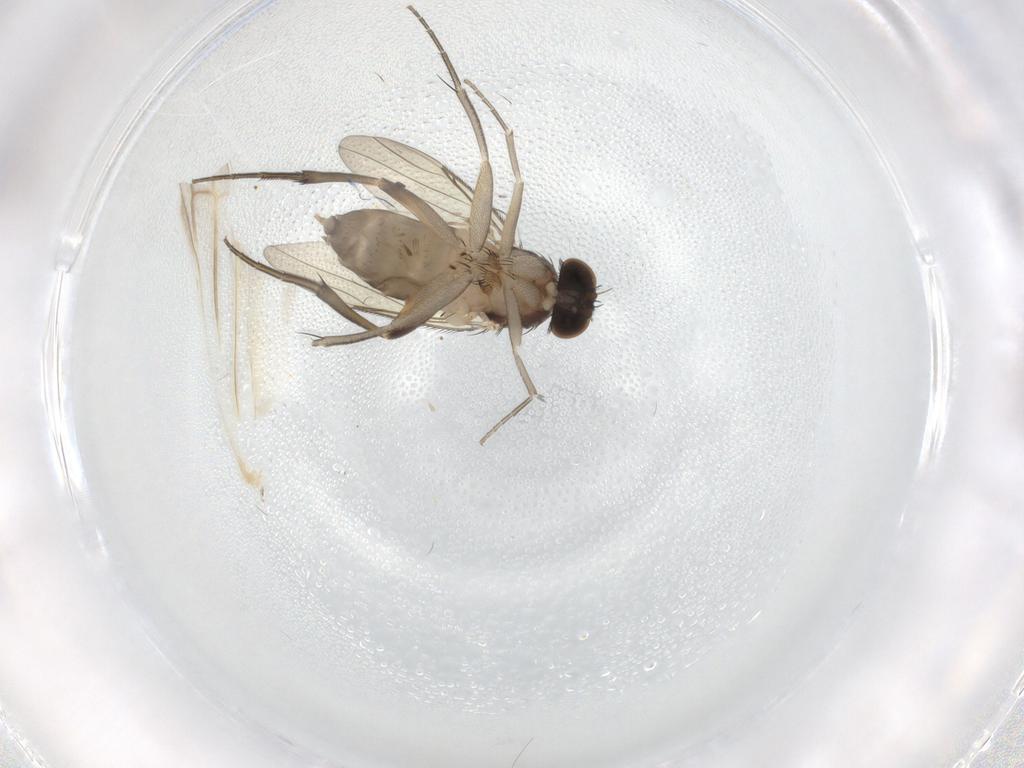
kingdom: Animalia
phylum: Arthropoda
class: Insecta
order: Diptera
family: Phoridae
